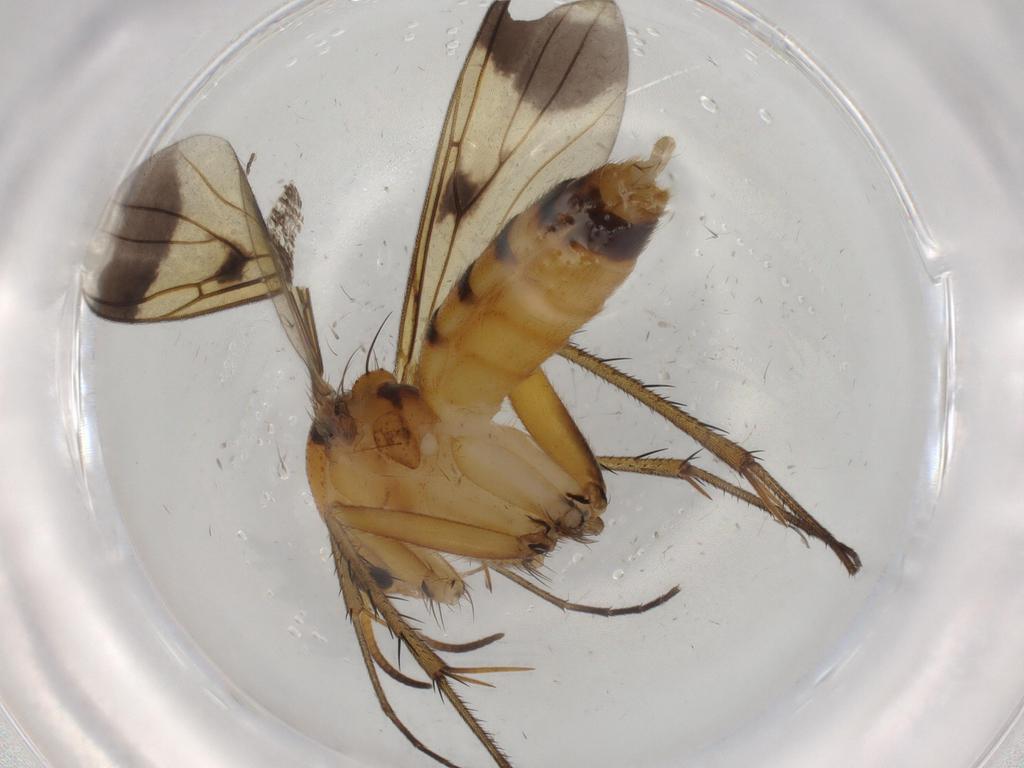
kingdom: Animalia
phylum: Arthropoda
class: Insecta
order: Diptera
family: Mycetophilidae
